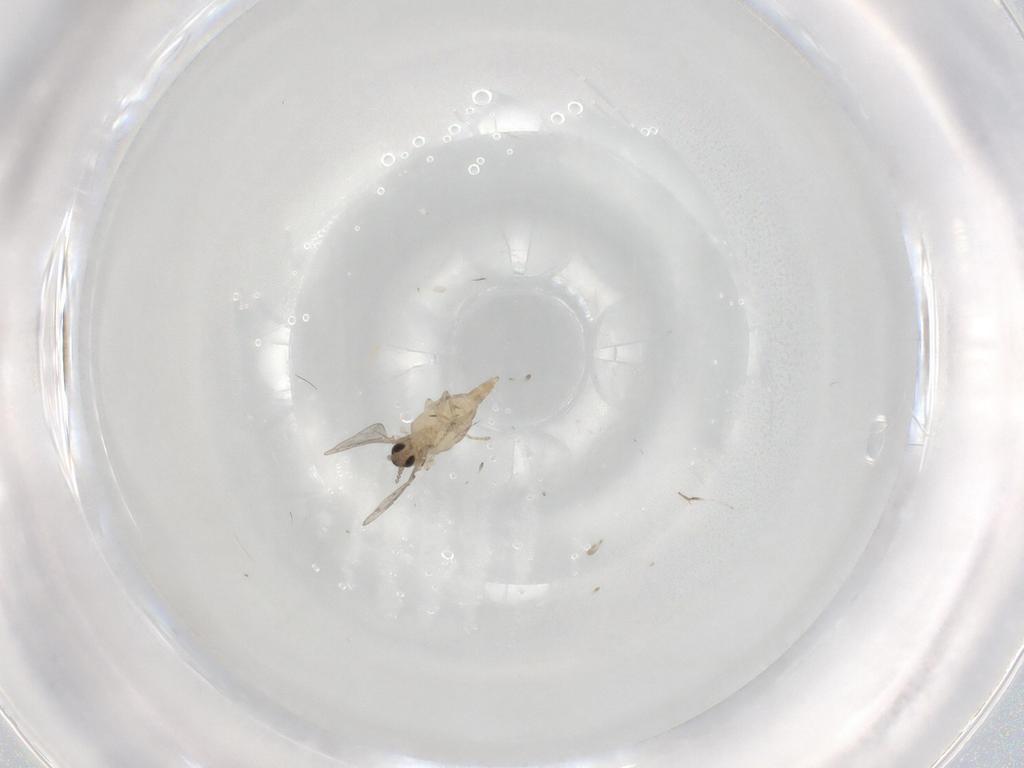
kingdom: Animalia
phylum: Arthropoda
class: Insecta
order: Diptera
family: Cecidomyiidae
